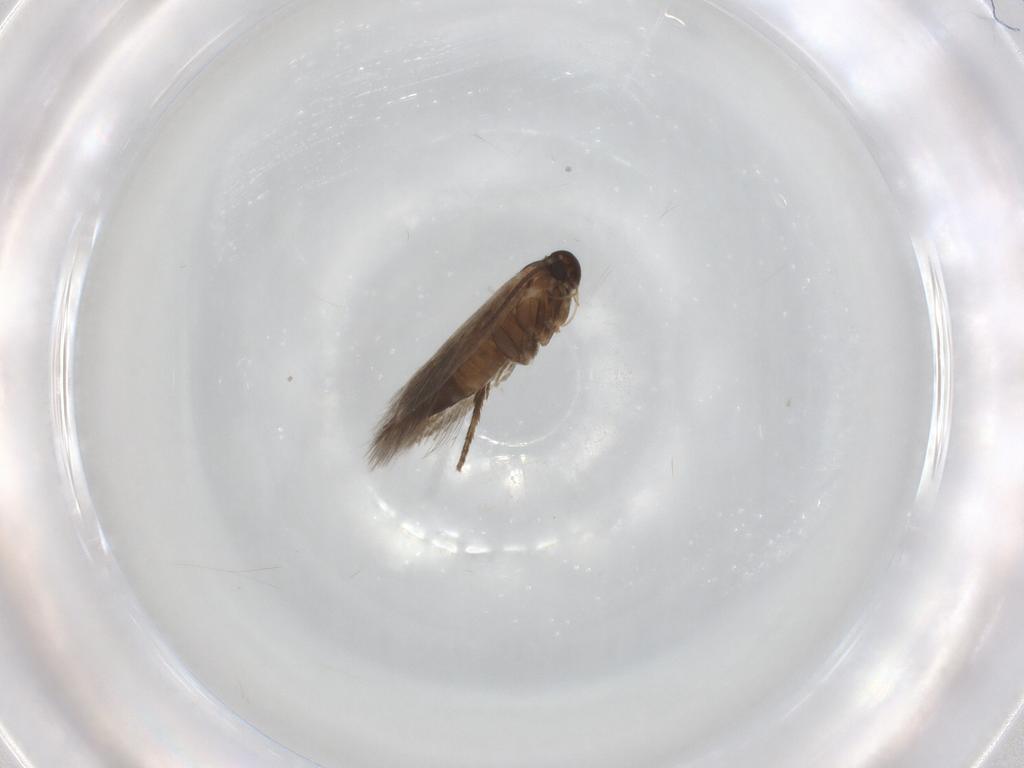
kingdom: Animalia
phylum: Arthropoda
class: Insecta
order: Lepidoptera
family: Heliozelidae
